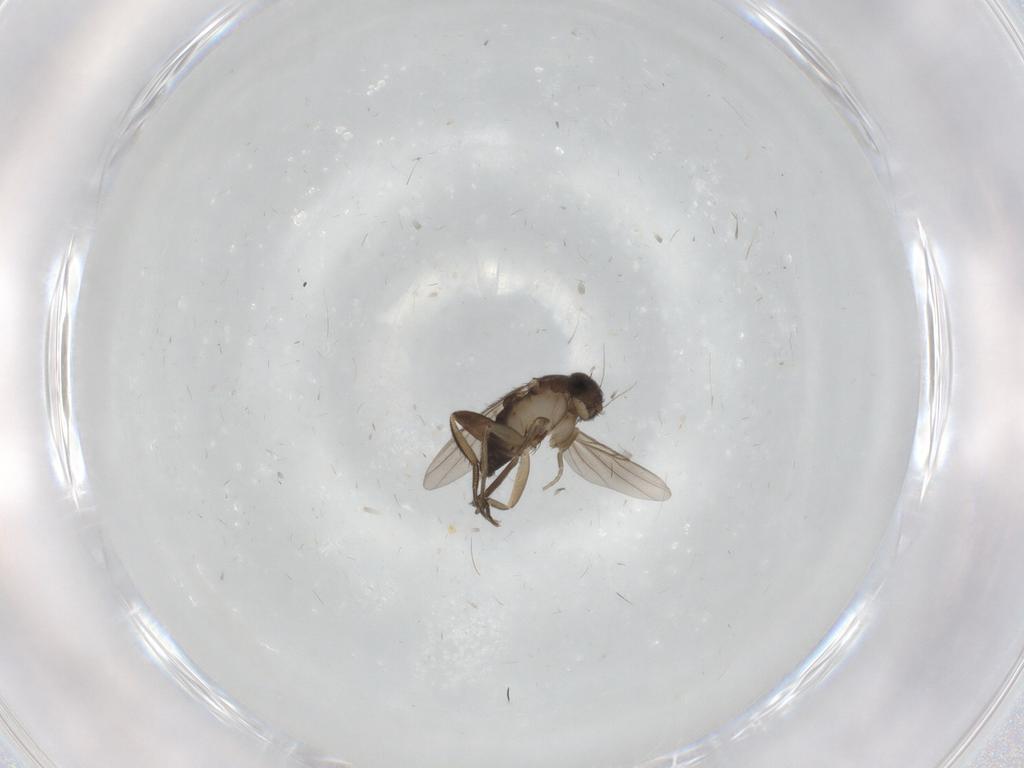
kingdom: Animalia
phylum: Arthropoda
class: Insecta
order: Diptera
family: Phoridae
